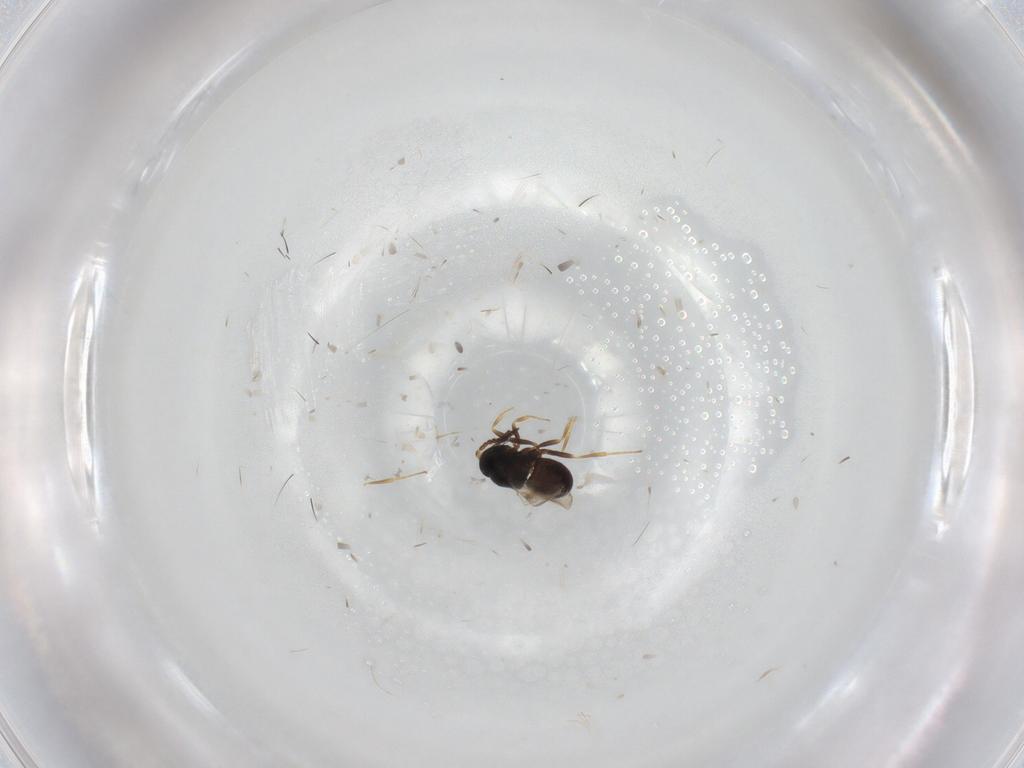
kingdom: Animalia
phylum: Arthropoda
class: Insecta
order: Hymenoptera
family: Scelionidae
